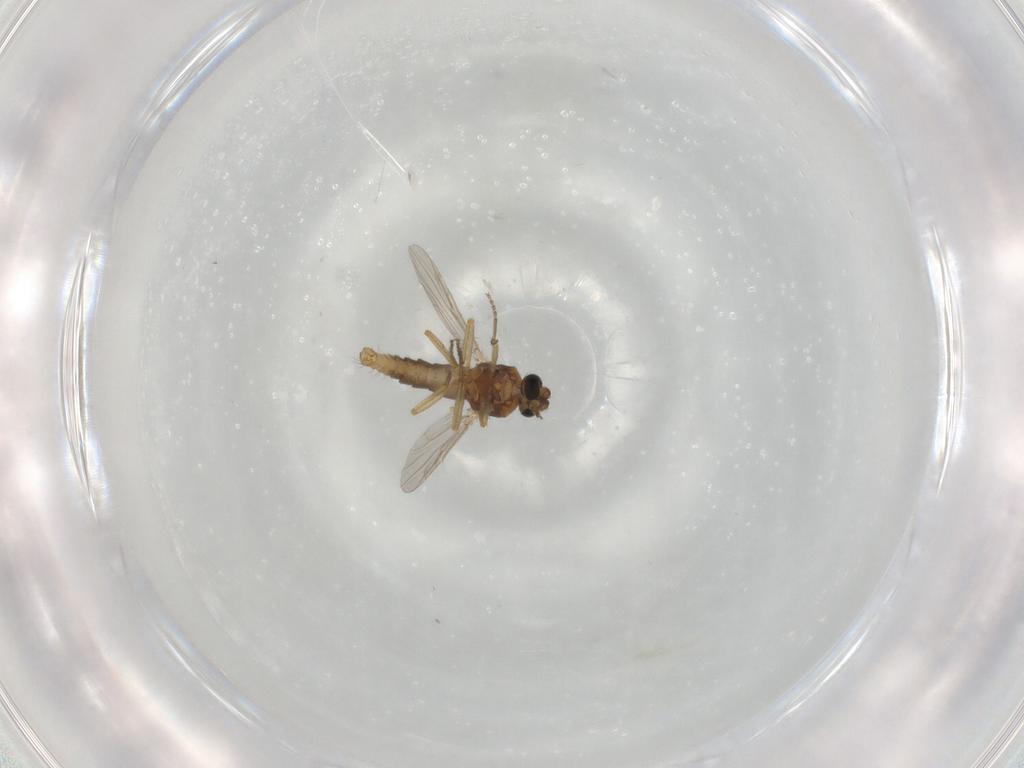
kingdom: Animalia
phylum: Arthropoda
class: Insecta
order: Diptera
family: Ceratopogonidae
